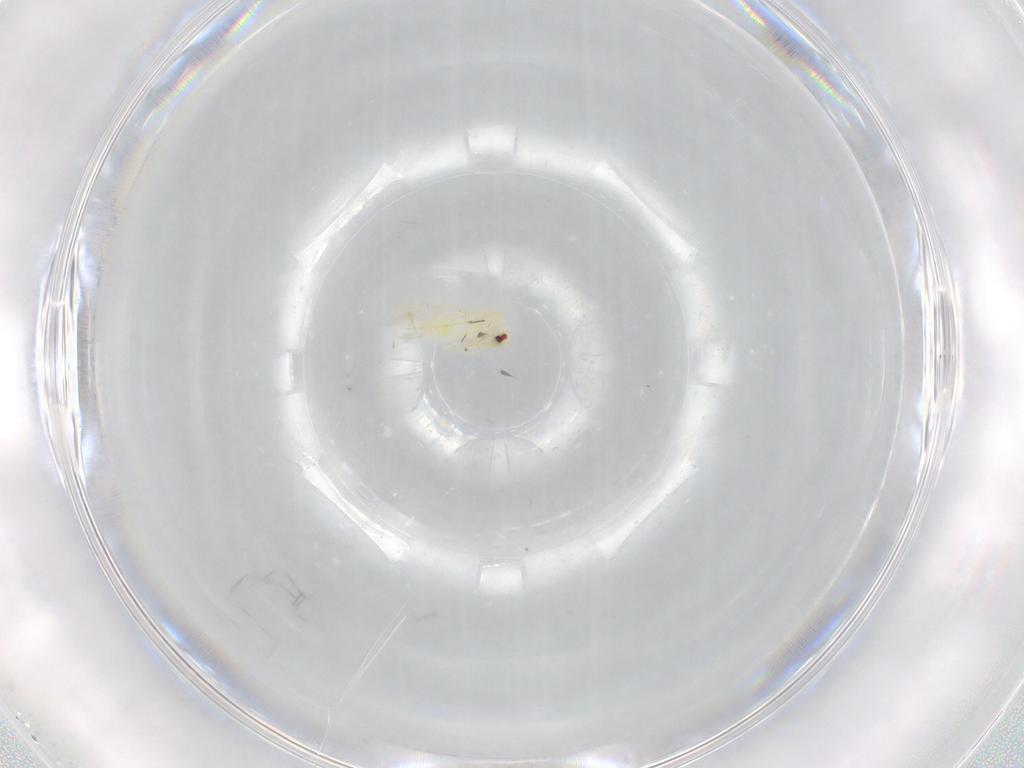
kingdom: Animalia
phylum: Arthropoda
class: Insecta
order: Hemiptera
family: Aleyrodidae
